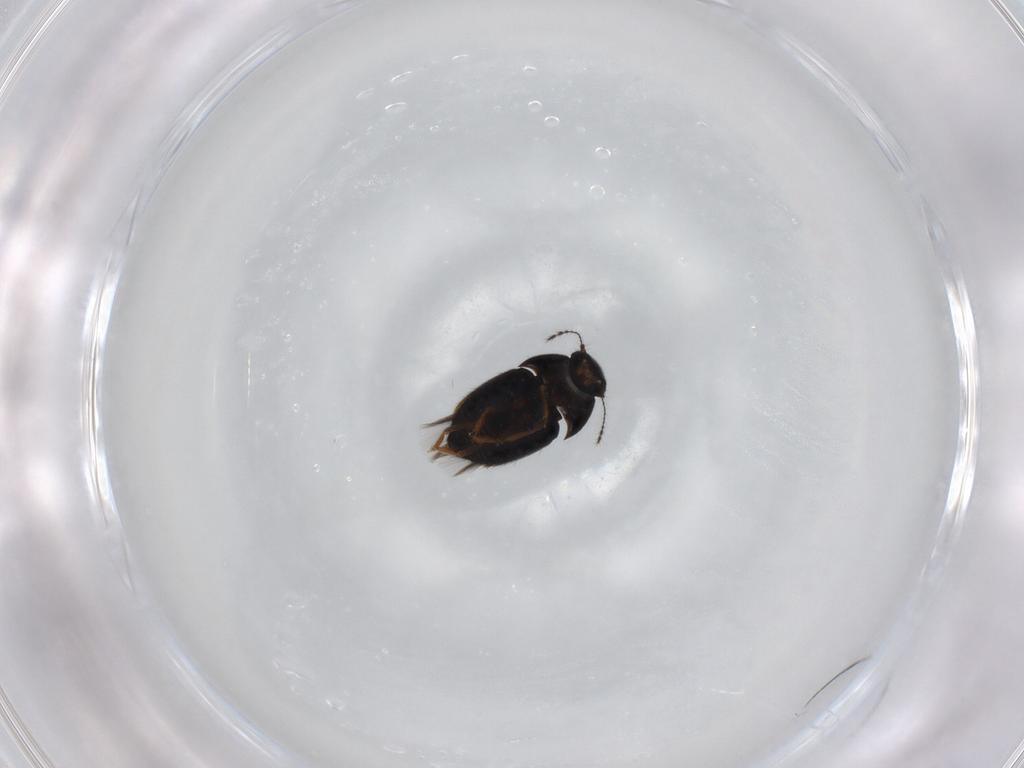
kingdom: Animalia
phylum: Arthropoda
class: Insecta
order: Coleoptera
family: Ptiliidae
